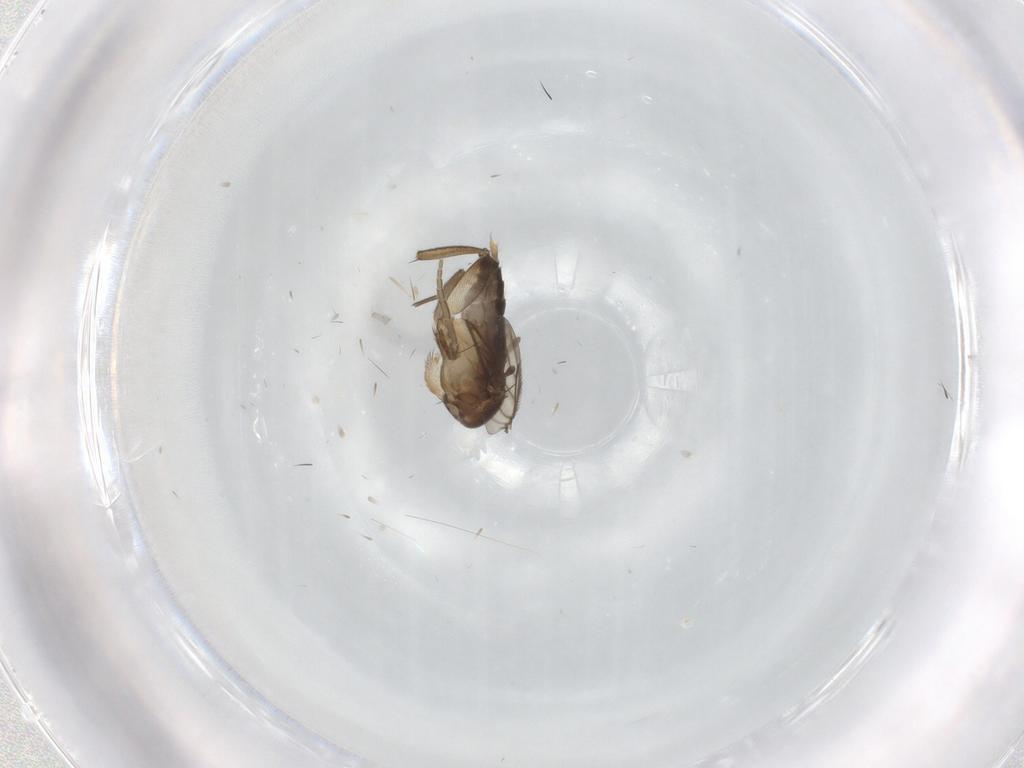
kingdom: Animalia
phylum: Arthropoda
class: Insecta
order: Diptera
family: Phoridae
